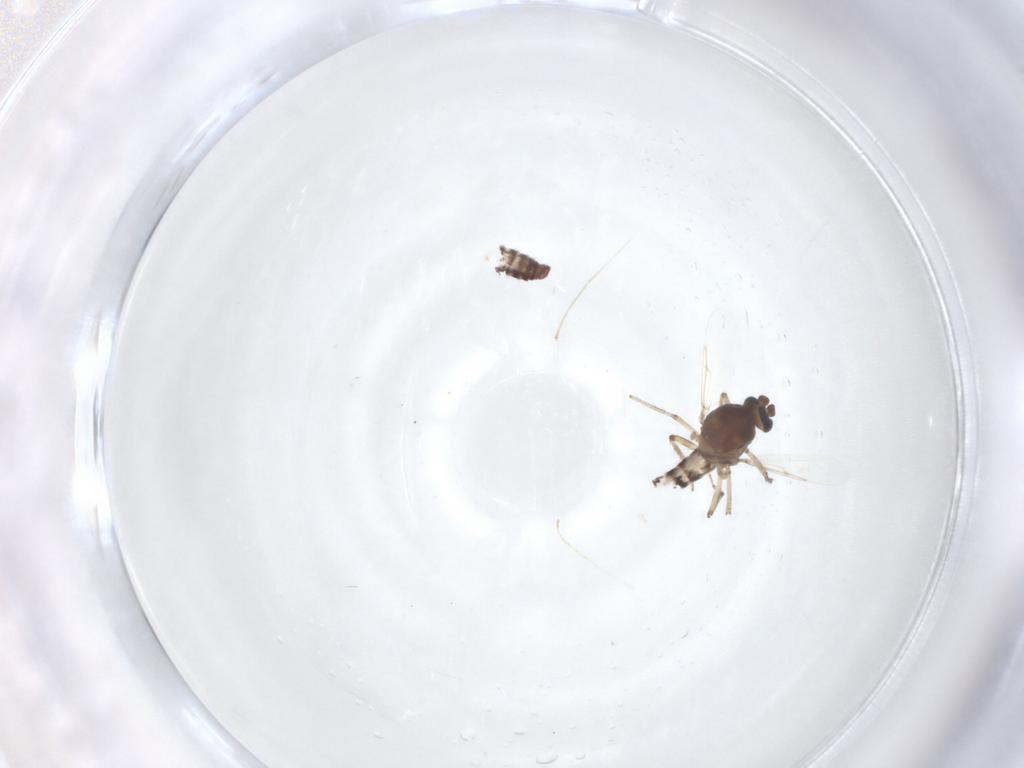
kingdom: Animalia
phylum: Arthropoda
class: Insecta
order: Diptera
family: Ceratopogonidae
